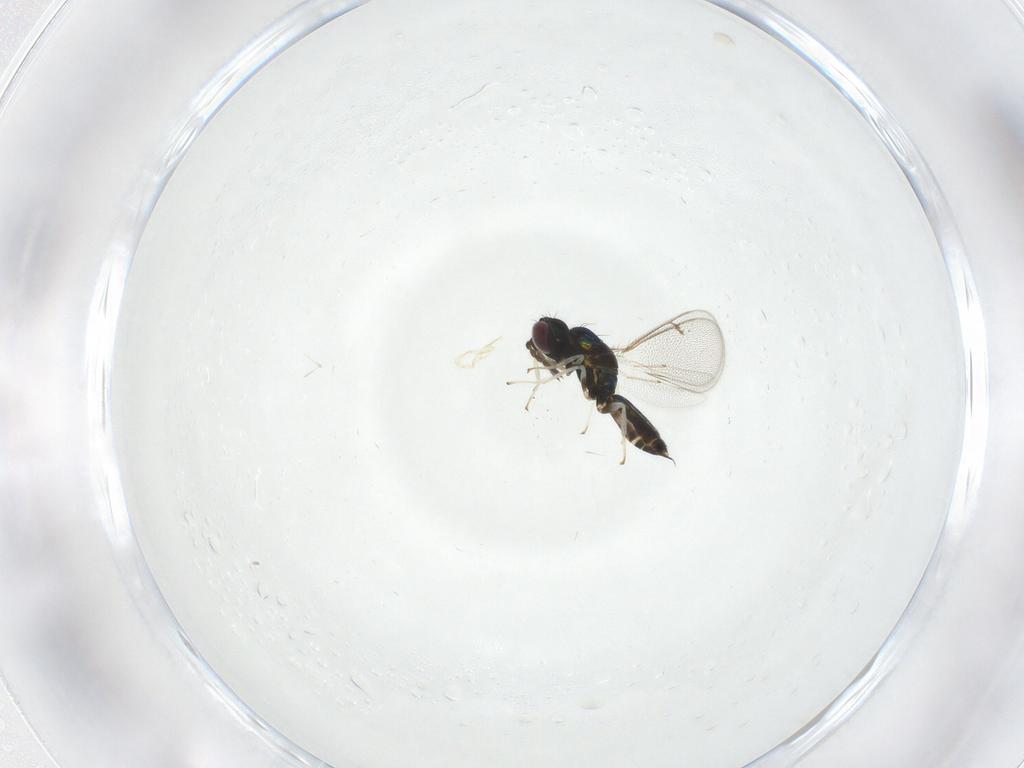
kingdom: Animalia
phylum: Arthropoda
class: Insecta
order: Hymenoptera
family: Eulophidae
